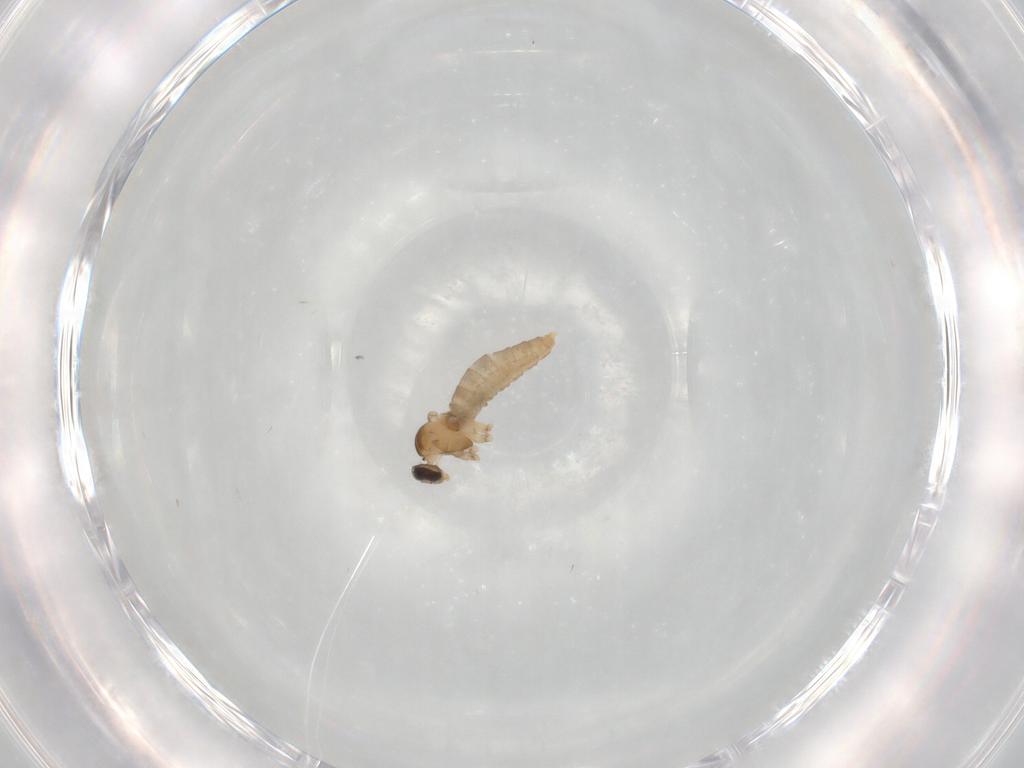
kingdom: Animalia
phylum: Arthropoda
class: Insecta
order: Diptera
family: Cecidomyiidae
